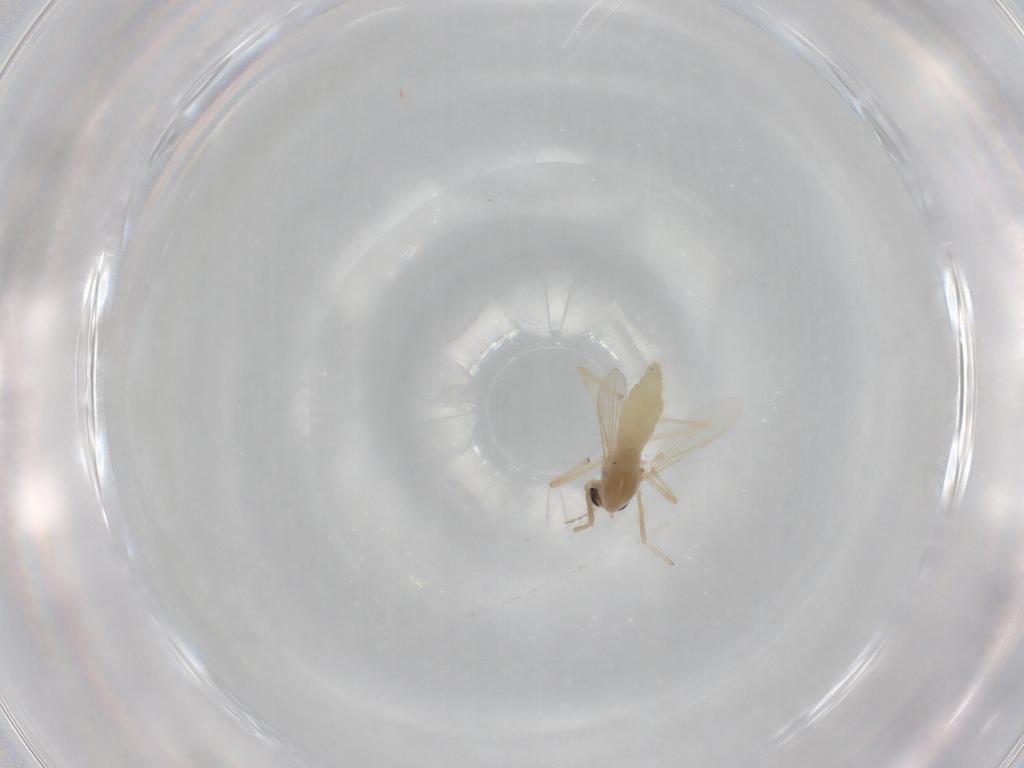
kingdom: Animalia
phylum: Arthropoda
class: Insecta
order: Diptera
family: Chironomidae
